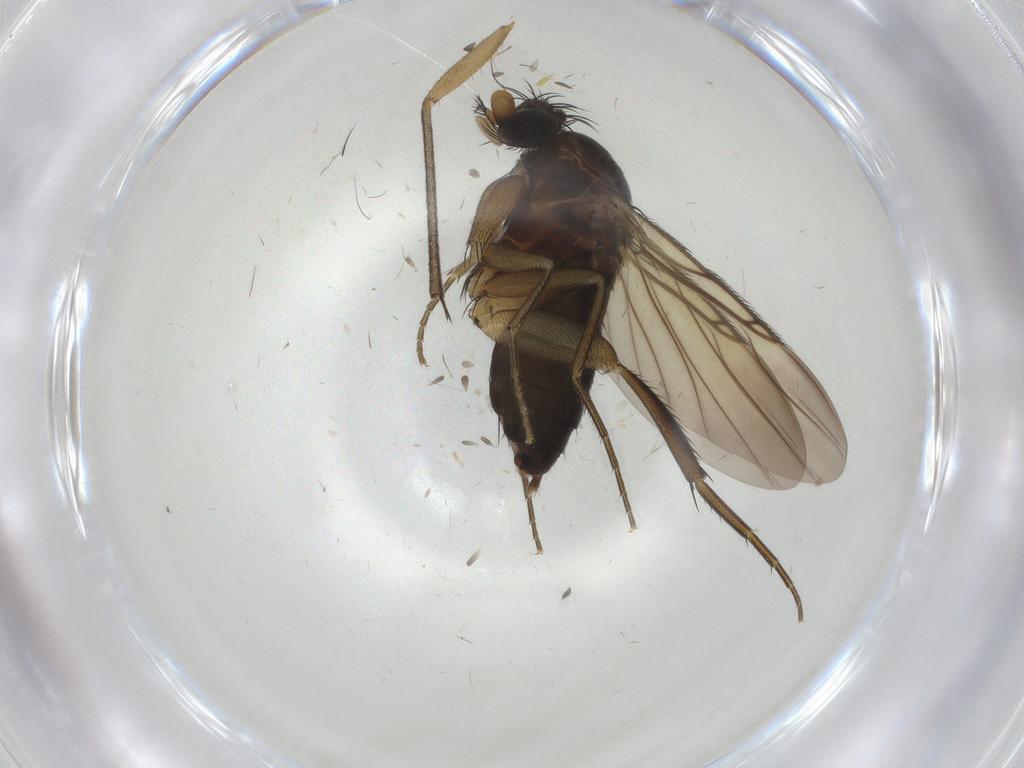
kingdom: Animalia
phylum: Arthropoda
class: Insecta
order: Diptera
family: Phoridae
